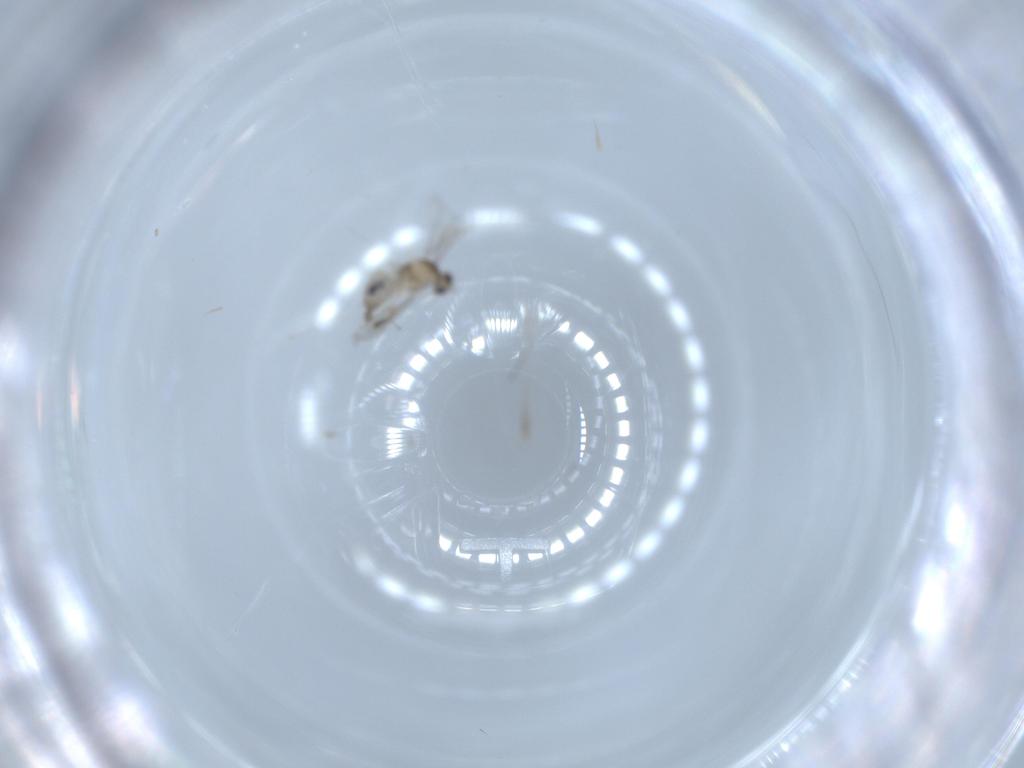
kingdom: Animalia
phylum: Arthropoda
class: Insecta
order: Diptera
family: Cecidomyiidae
